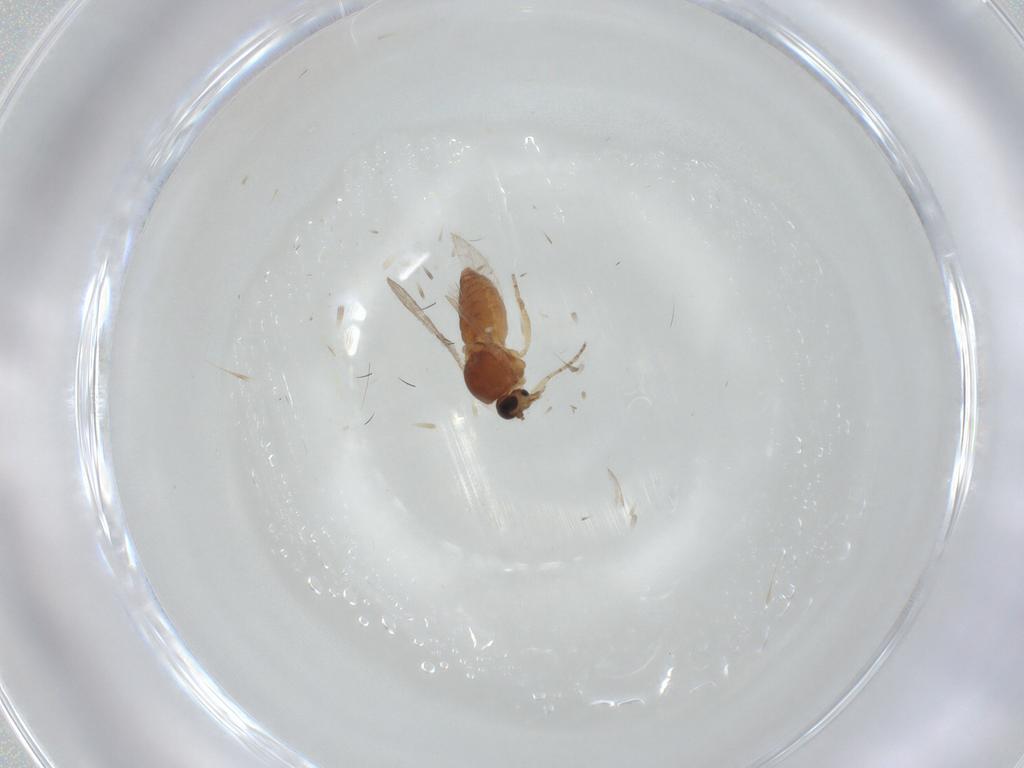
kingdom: Animalia
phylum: Arthropoda
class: Insecta
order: Diptera
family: Ceratopogonidae
